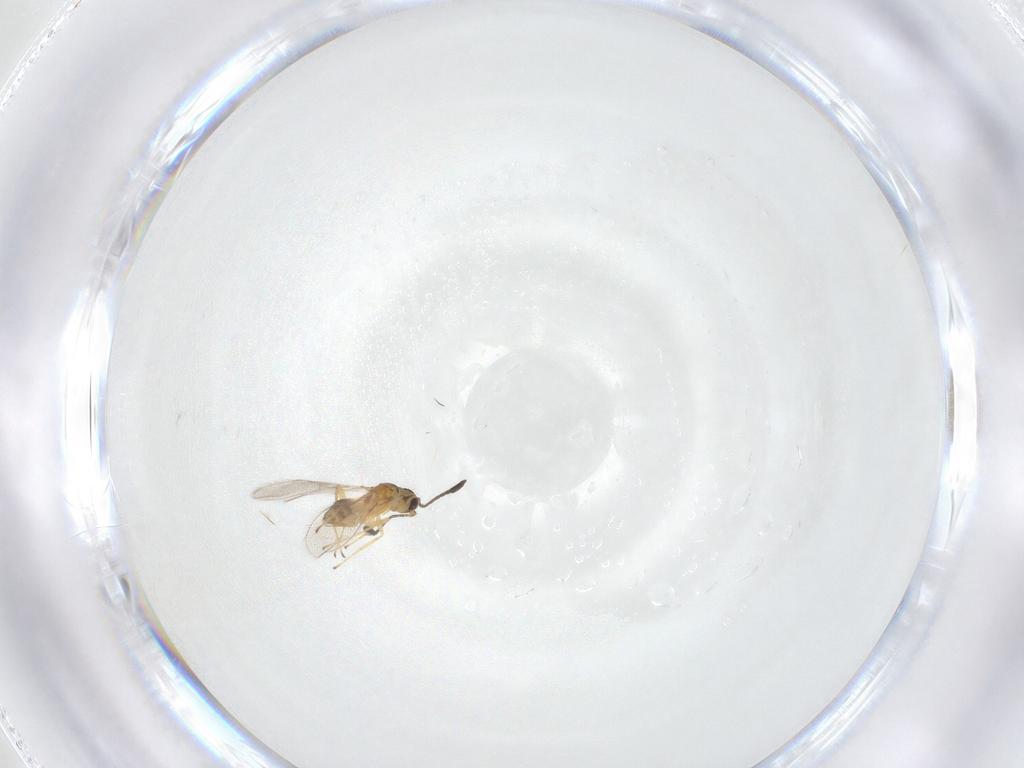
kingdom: Animalia
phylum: Arthropoda
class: Insecta
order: Diptera
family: Ceratopogonidae
